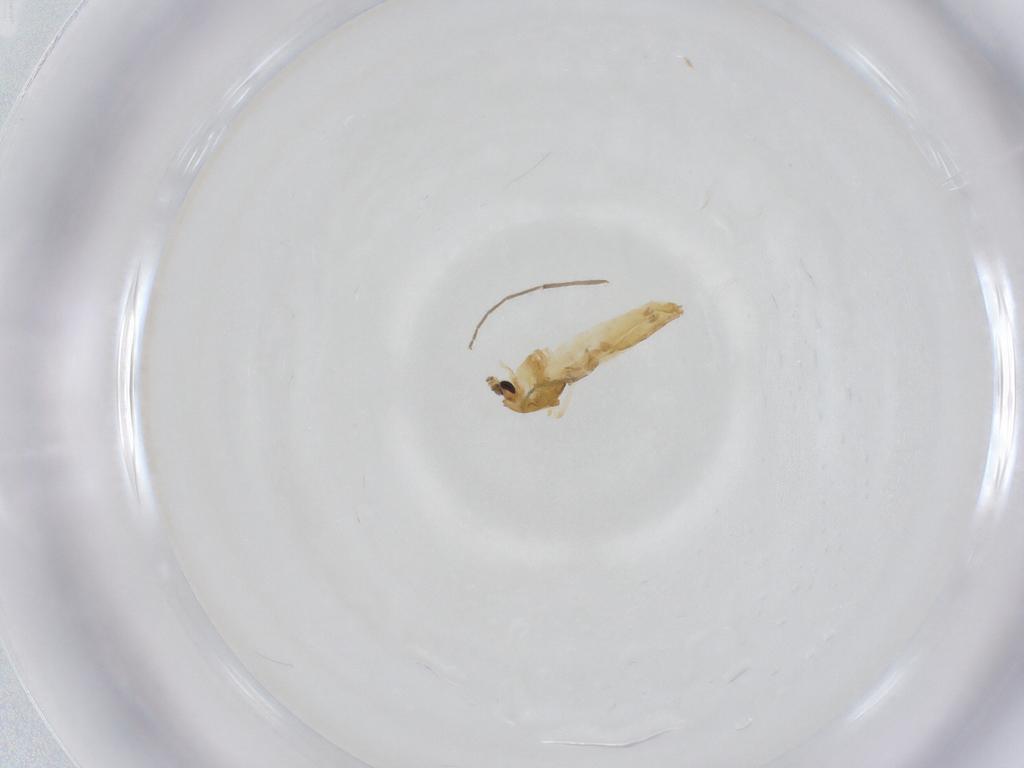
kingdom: Animalia
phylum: Arthropoda
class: Insecta
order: Diptera
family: Chironomidae
